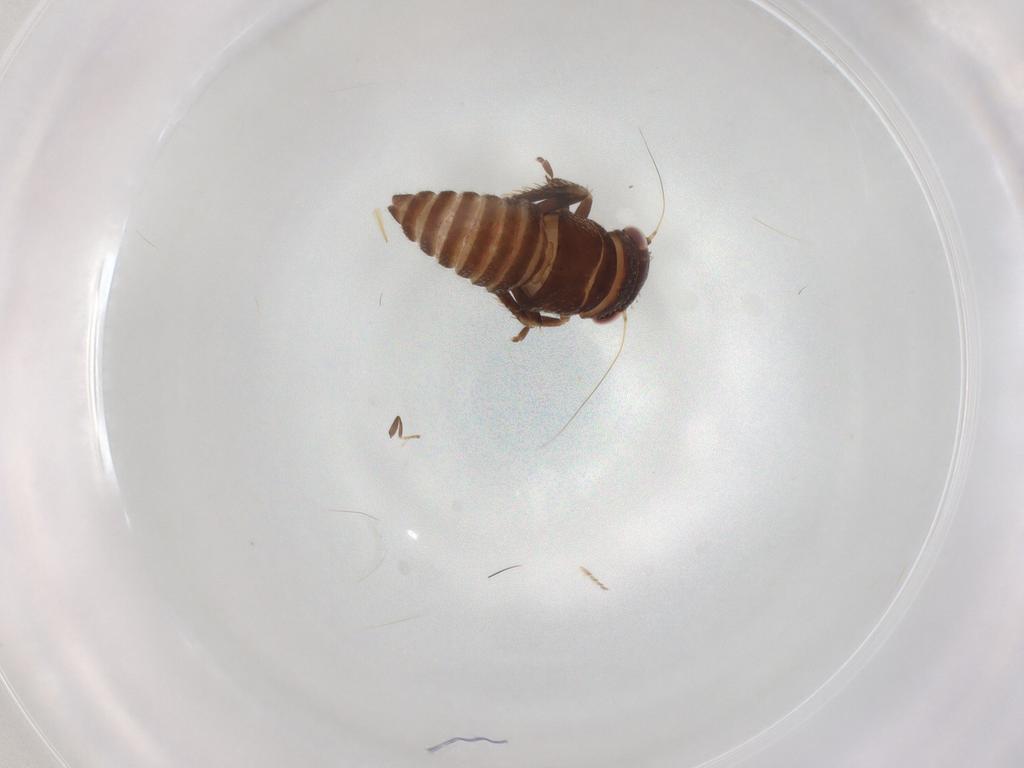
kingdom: Animalia
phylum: Arthropoda
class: Insecta
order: Hemiptera
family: Cicadellidae
